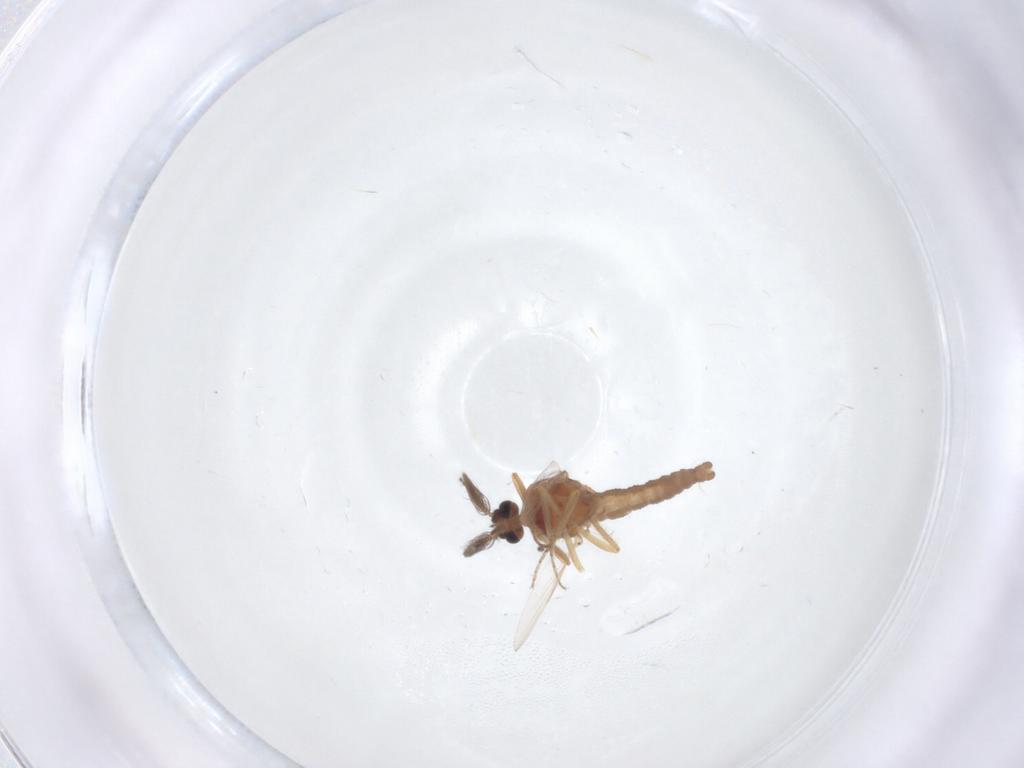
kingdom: Animalia
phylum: Arthropoda
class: Insecta
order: Diptera
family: Ceratopogonidae
